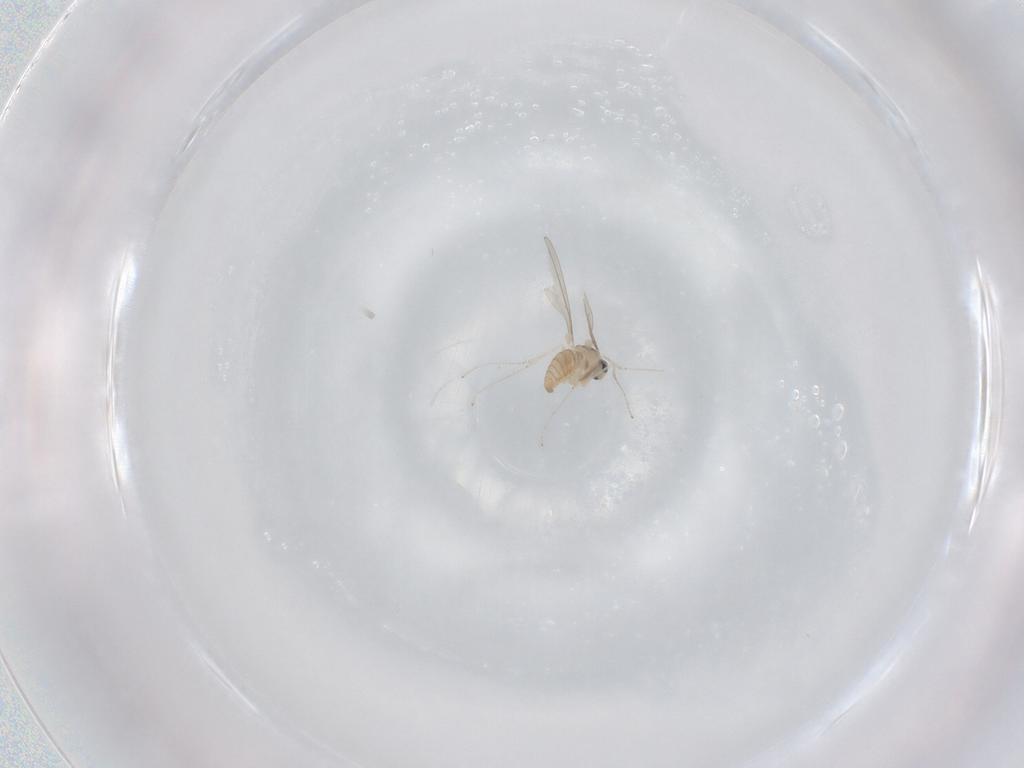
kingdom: Animalia
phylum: Arthropoda
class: Insecta
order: Diptera
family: Cecidomyiidae
